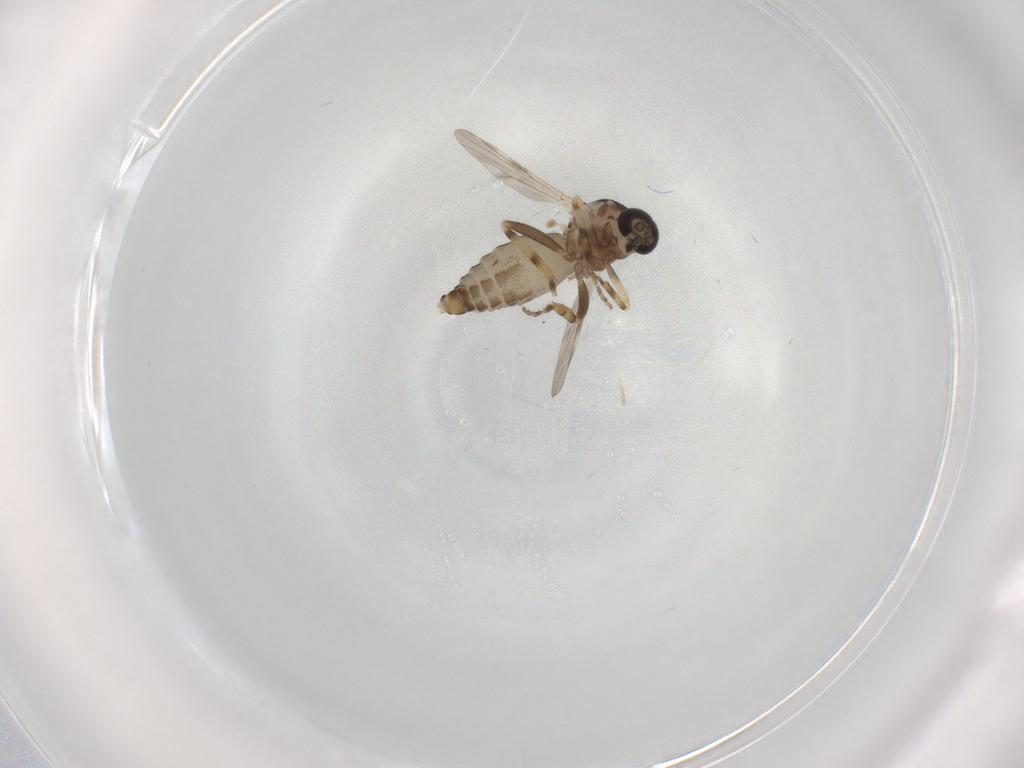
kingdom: Animalia
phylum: Arthropoda
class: Insecta
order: Diptera
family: Ceratopogonidae
